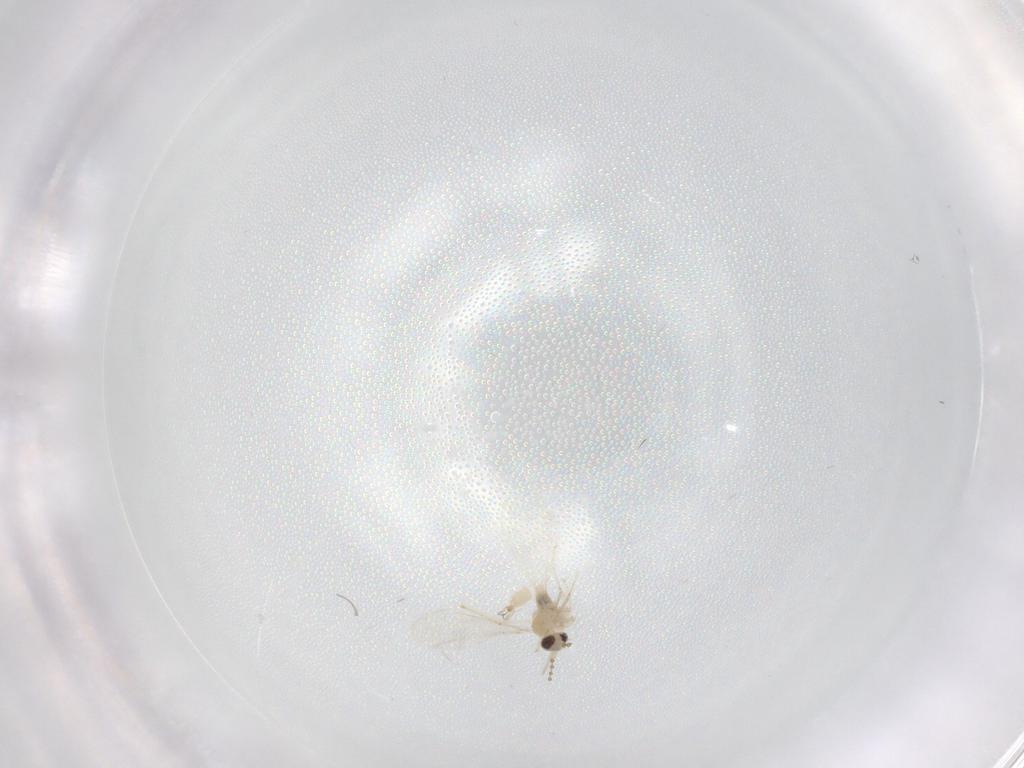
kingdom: Animalia
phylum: Arthropoda
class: Insecta
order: Diptera
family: Cecidomyiidae
